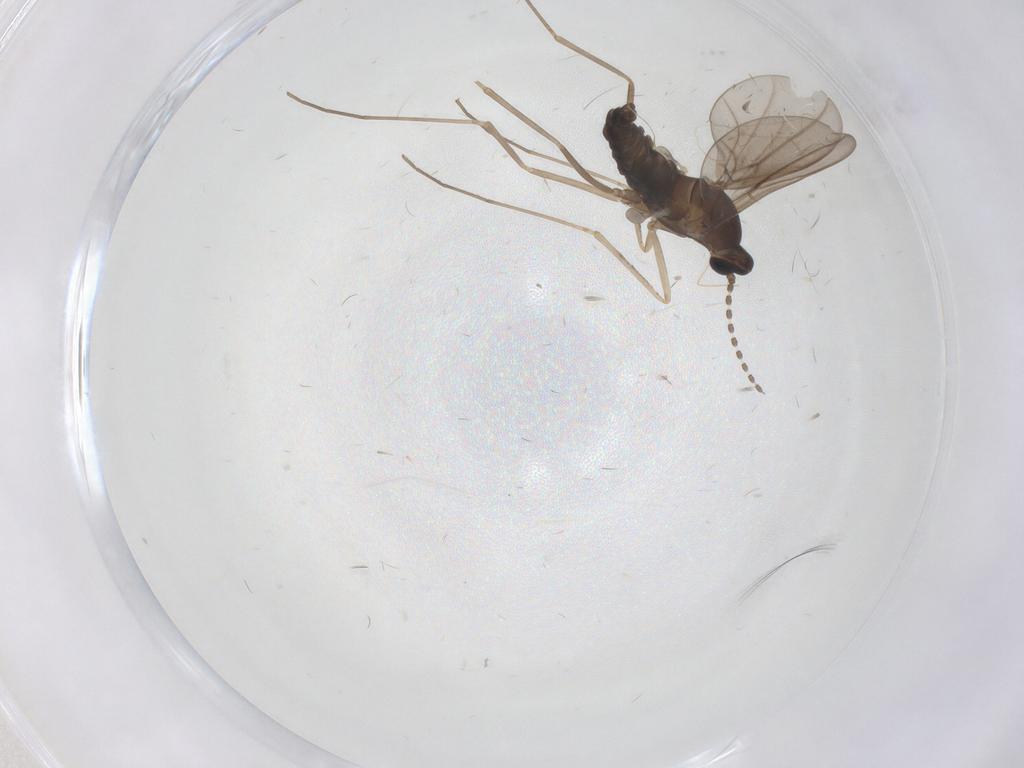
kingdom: Animalia
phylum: Arthropoda
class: Insecta
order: Diptera
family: Cecidomyiidae
